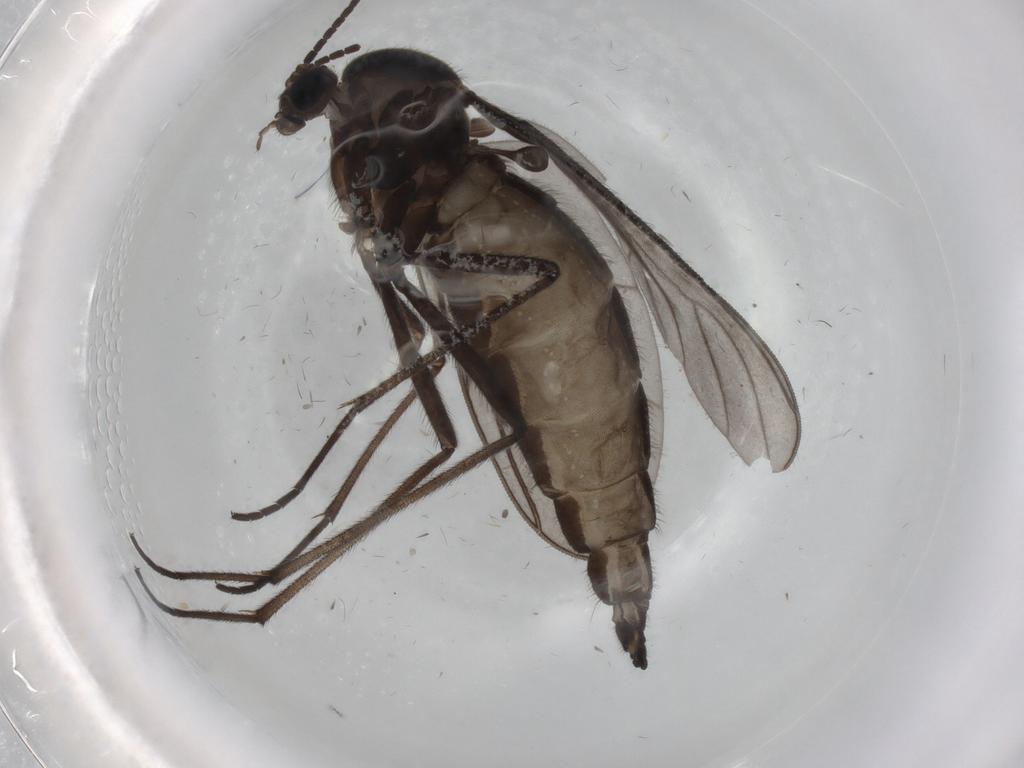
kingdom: Animalia
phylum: Arthropoda
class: Insecta
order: Diptera
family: Sciaridae
